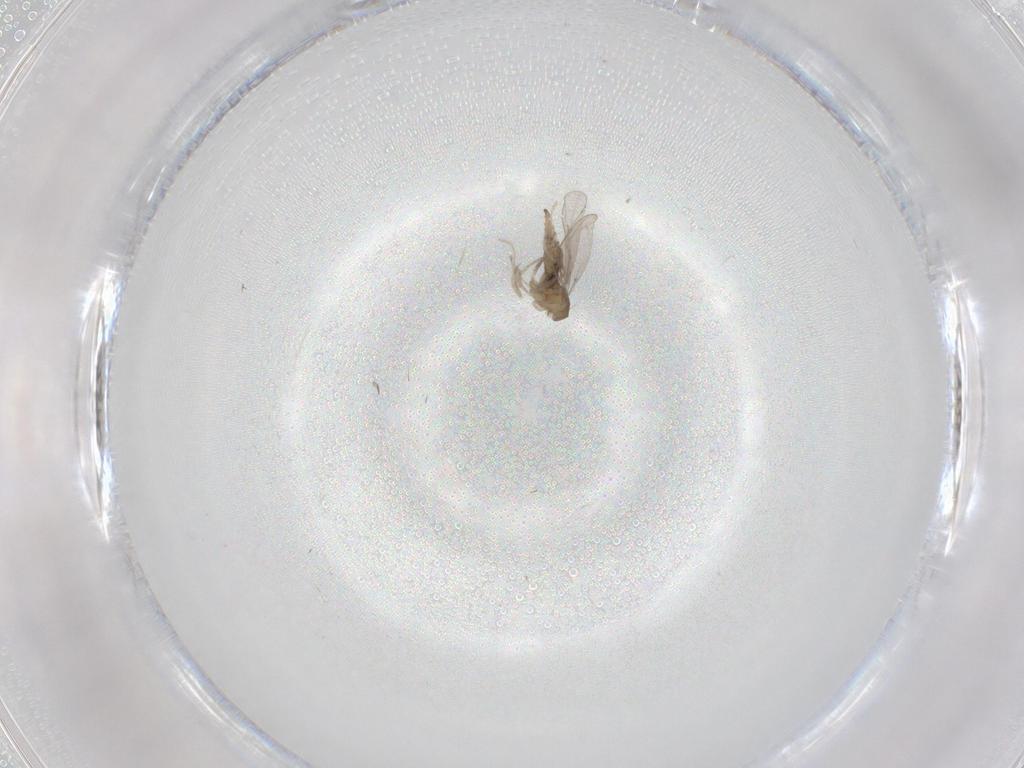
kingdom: Animalia
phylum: Arthropoda
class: Insecta
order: Diptera
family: Cecidomyiidae
